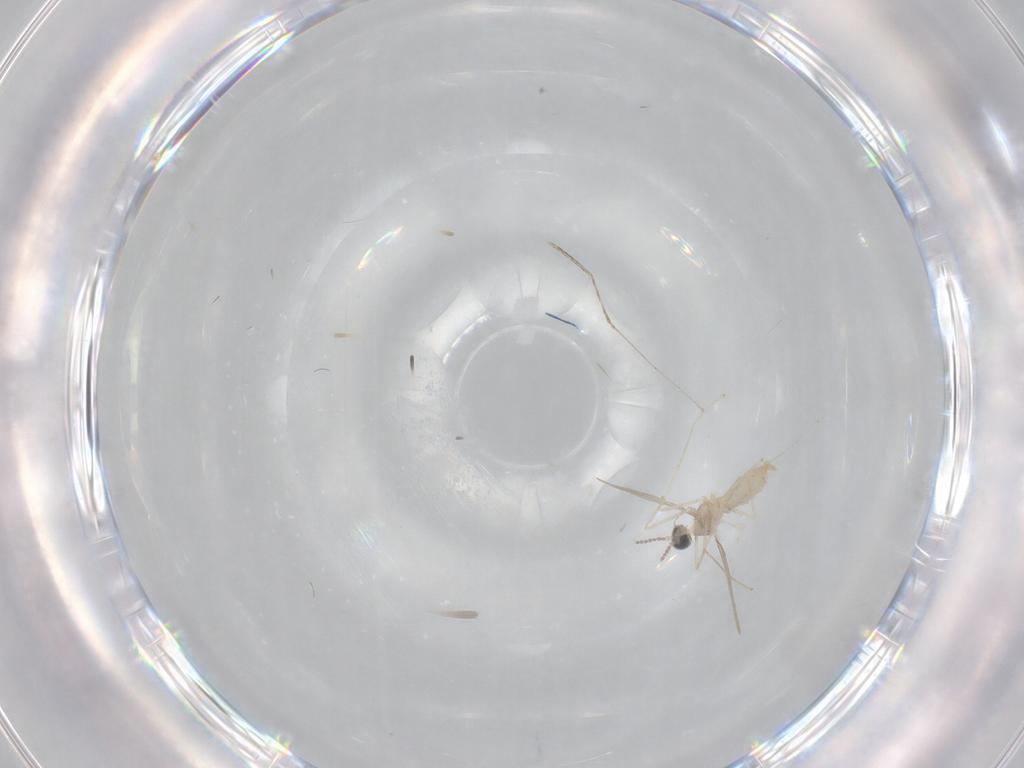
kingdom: Animalia
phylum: Arthropoda
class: Insecta
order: Diptera
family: Cecidomyiidae
